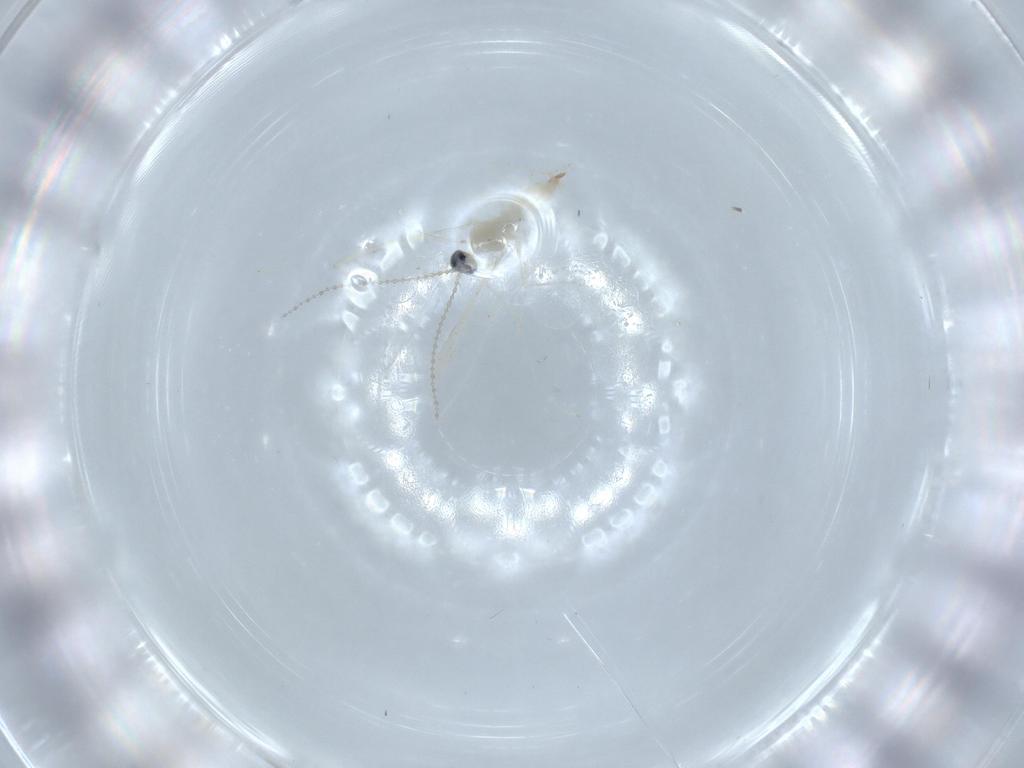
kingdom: Animalia
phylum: Arthropoda
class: Insecta
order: Diptera
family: Cecidomyiidae
